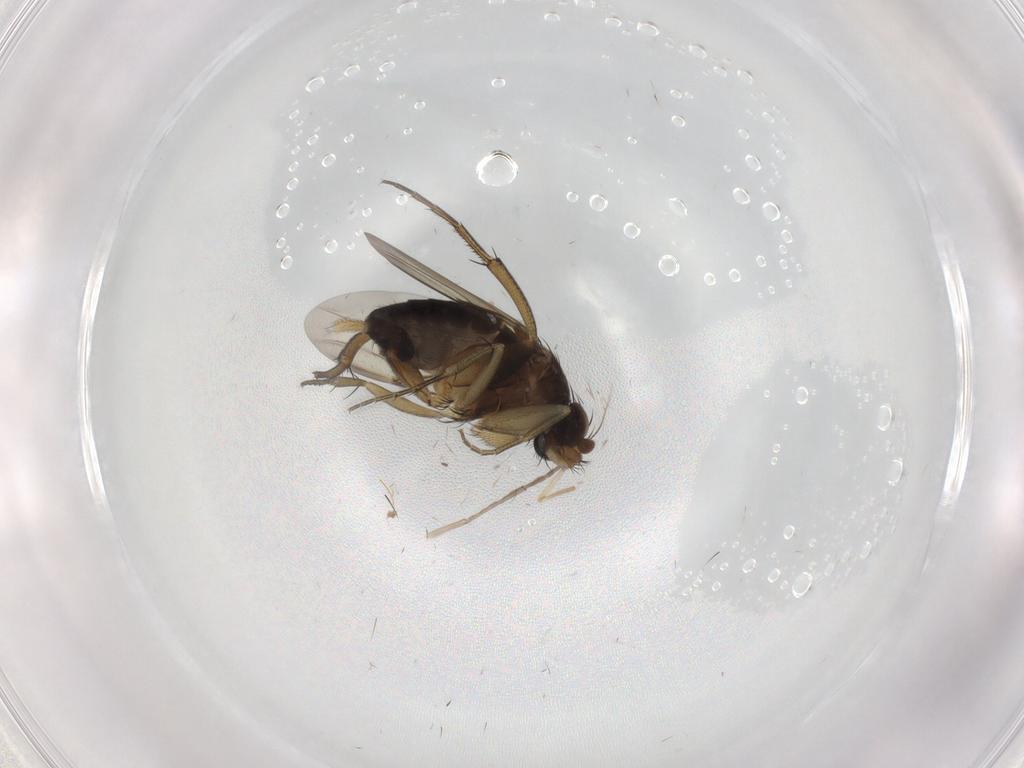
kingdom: Animalia
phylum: Arthropoda
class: Insecta
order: Diptera
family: Phoridae
